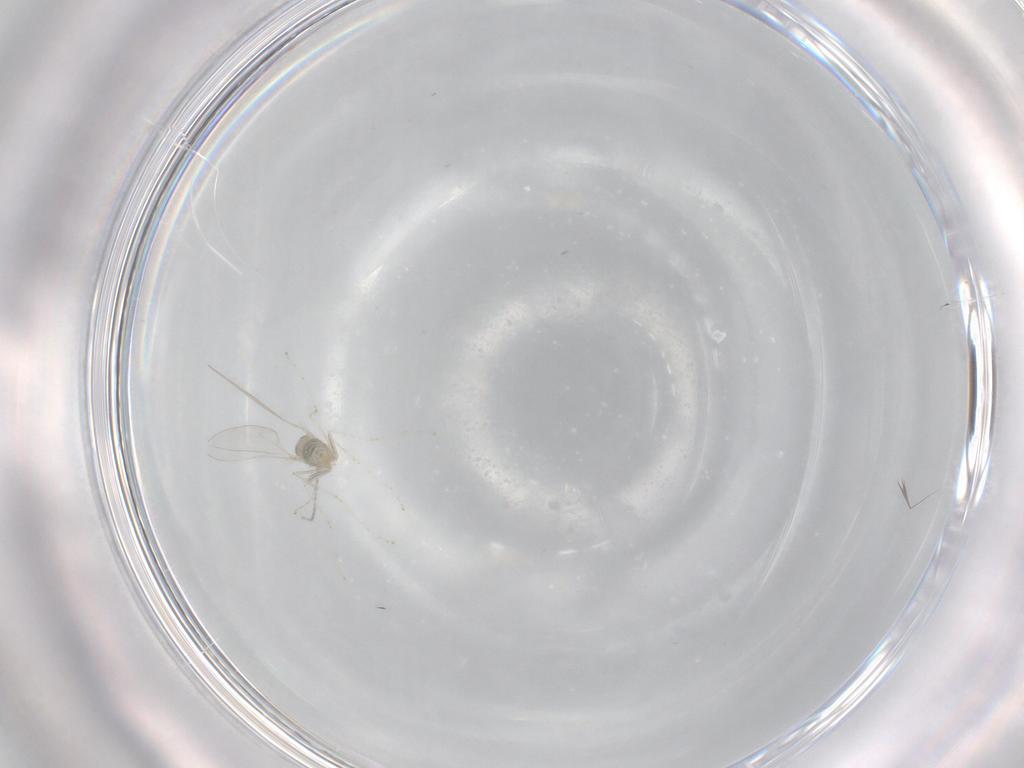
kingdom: Animalia
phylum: Arthropoda
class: Insecta
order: Diptera
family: Cecidomyiidae
